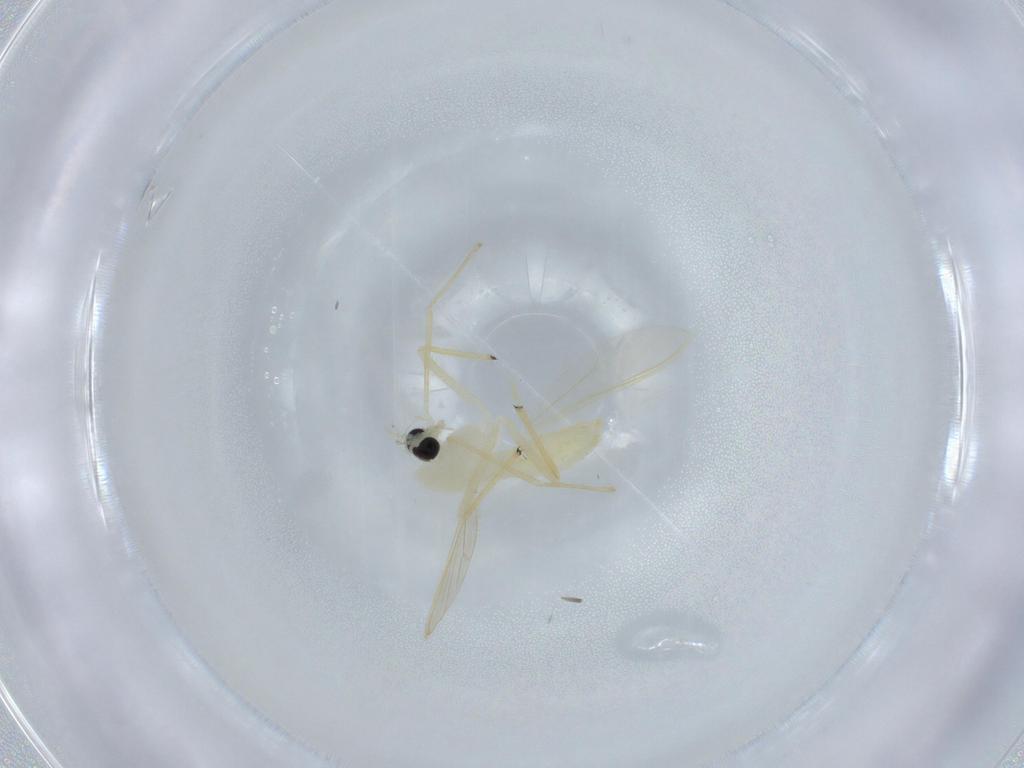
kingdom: Animalia
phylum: Arthropoda
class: Insecta
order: Diptera
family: Chironomidae
